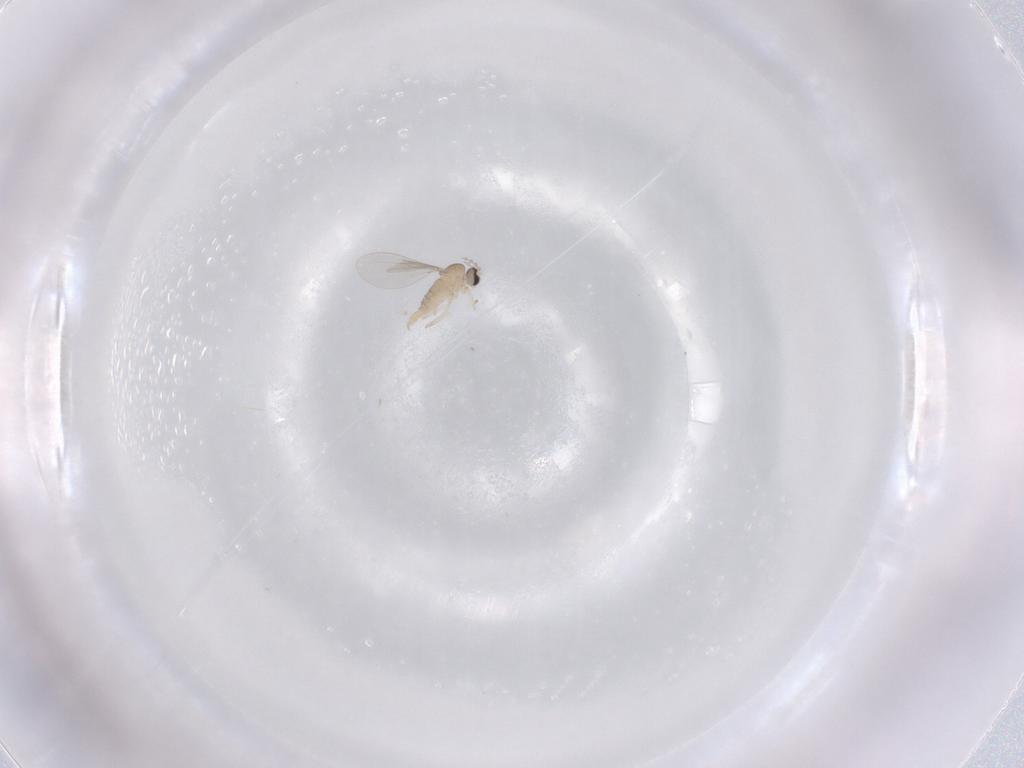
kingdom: Animalia
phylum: Arthropoda
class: Insecta
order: Diptera
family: Cecidomyiidae
